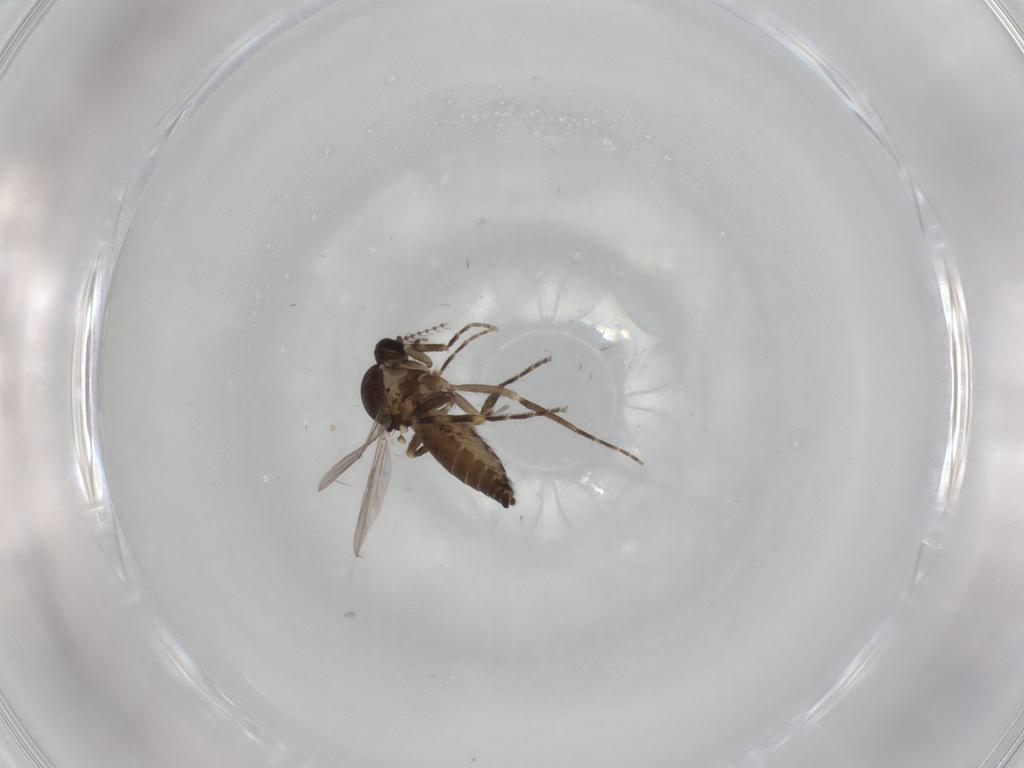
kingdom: Animalia
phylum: Arthropoda
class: Insecta
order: Diptera
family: Ceratopogonidae
